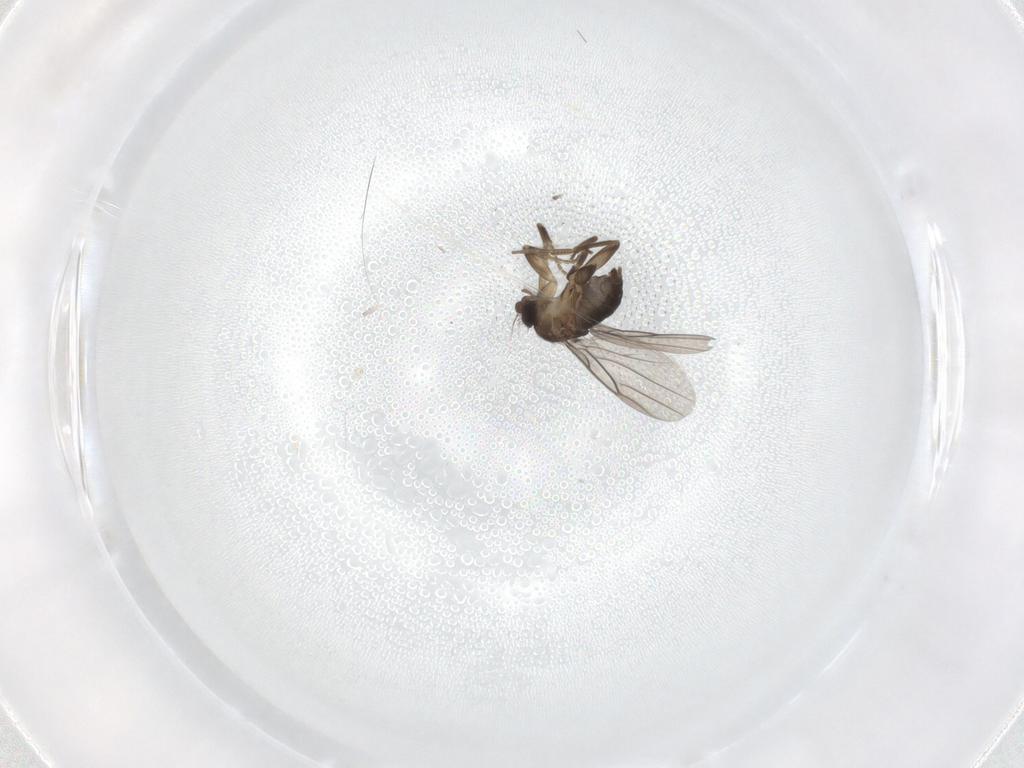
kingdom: Animalia
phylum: Arthropoda
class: Insecta
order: Diptera
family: Phoridae
